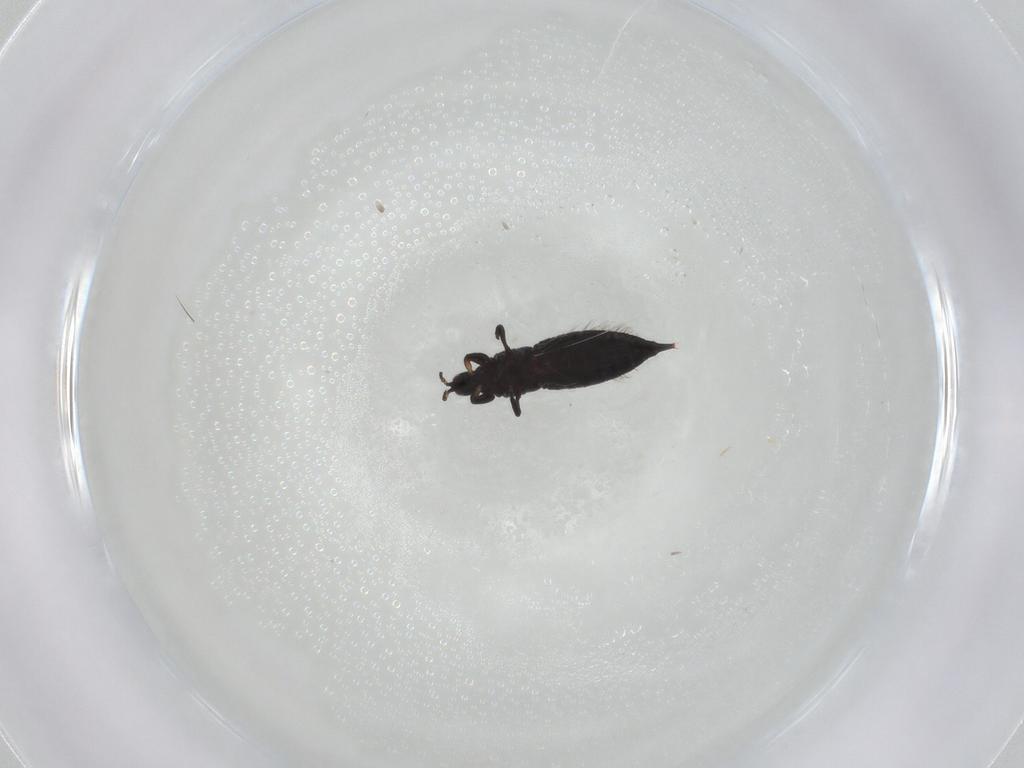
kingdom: Animalia
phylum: Arthropoda
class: Insecta
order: Thysanoptera
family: Phlaeothripidae
